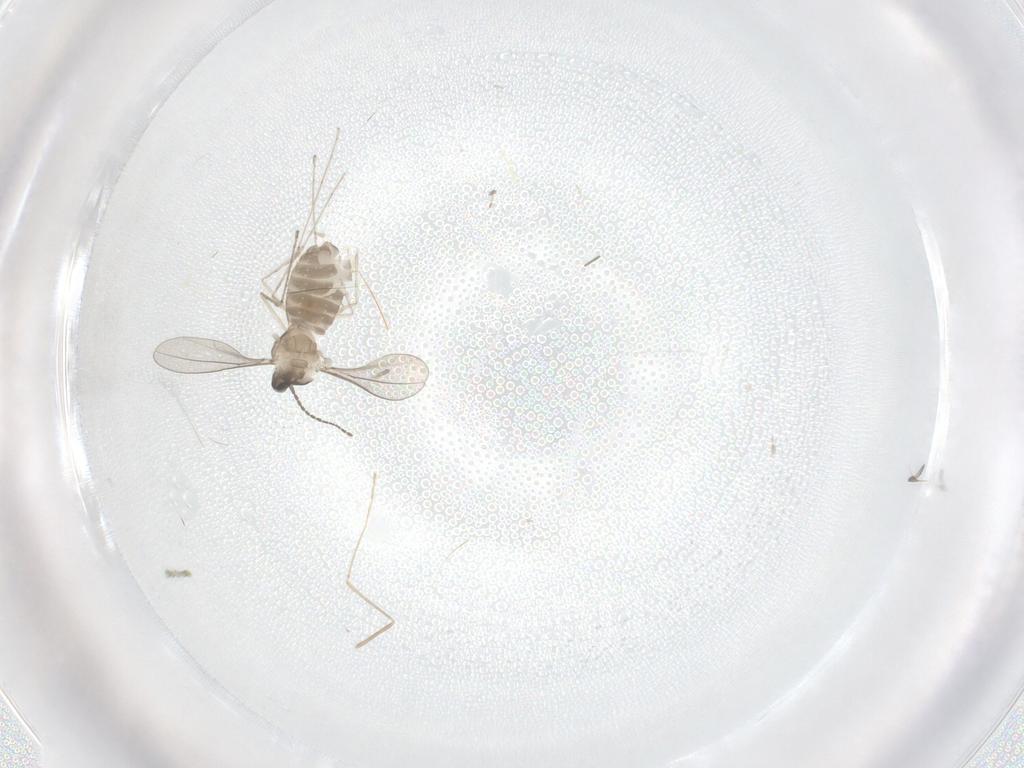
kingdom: Animalia
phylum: Arthropoda
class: Insecta
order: Diptera
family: Cecidomyiidae
